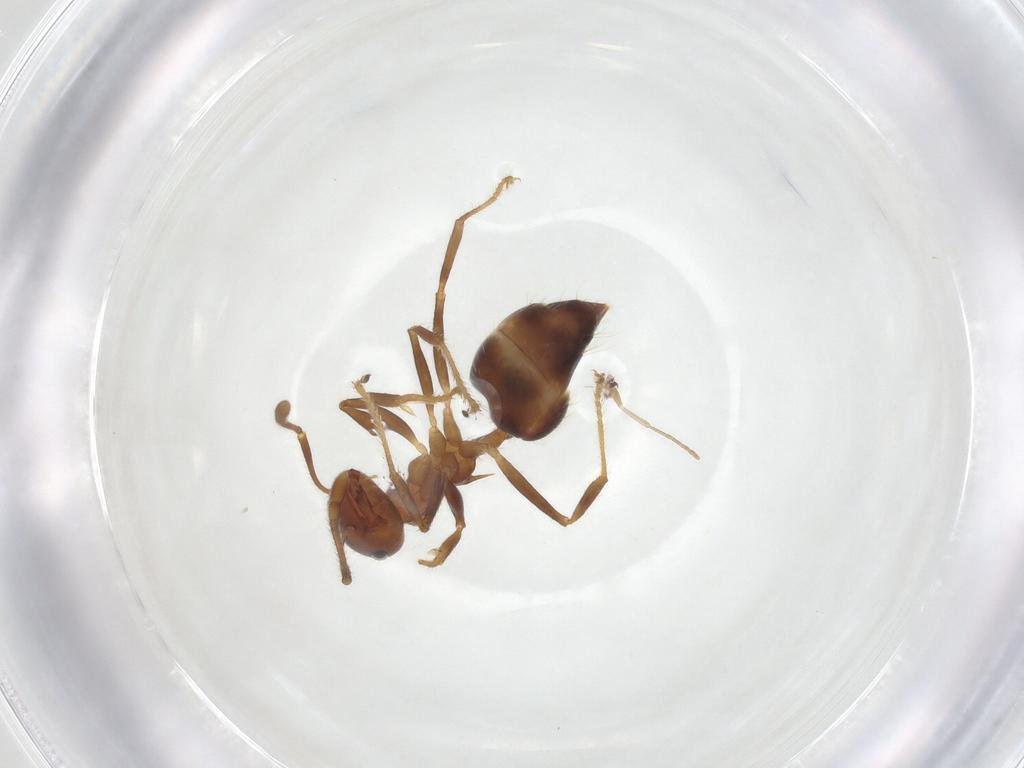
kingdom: Animalia
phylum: Arthropoda
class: Insecta
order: Hymenoptera
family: Formicidae
